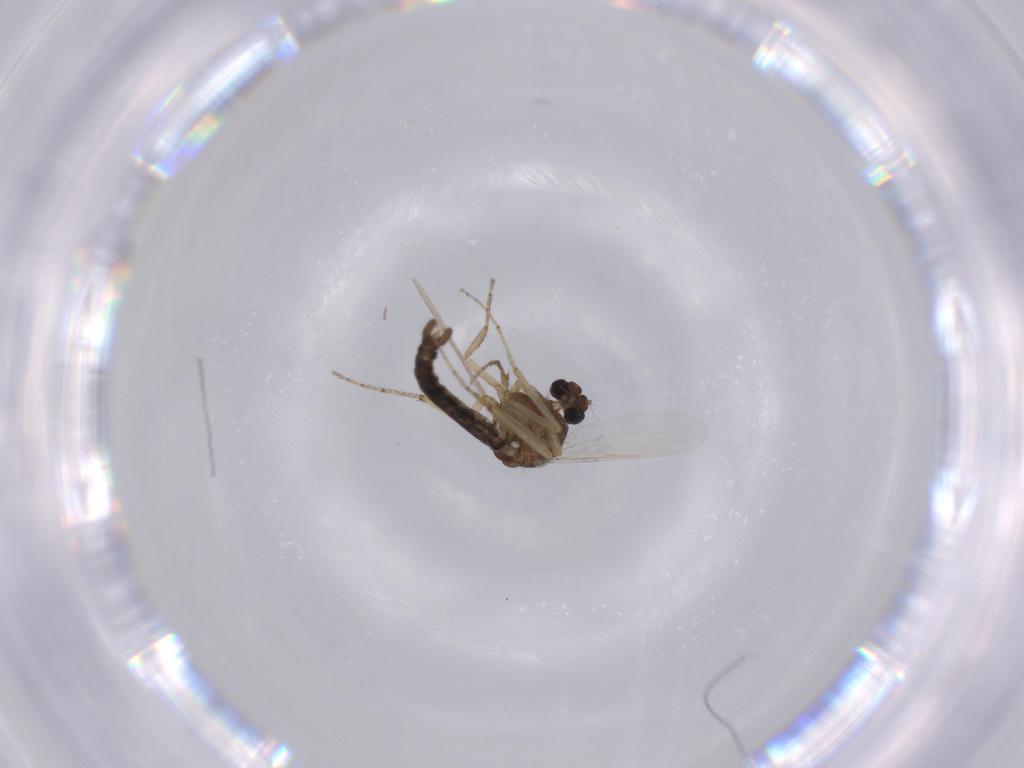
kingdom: Animalia
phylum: Arthropoda
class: Insecta
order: Diptera
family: Ceratopogonidae
